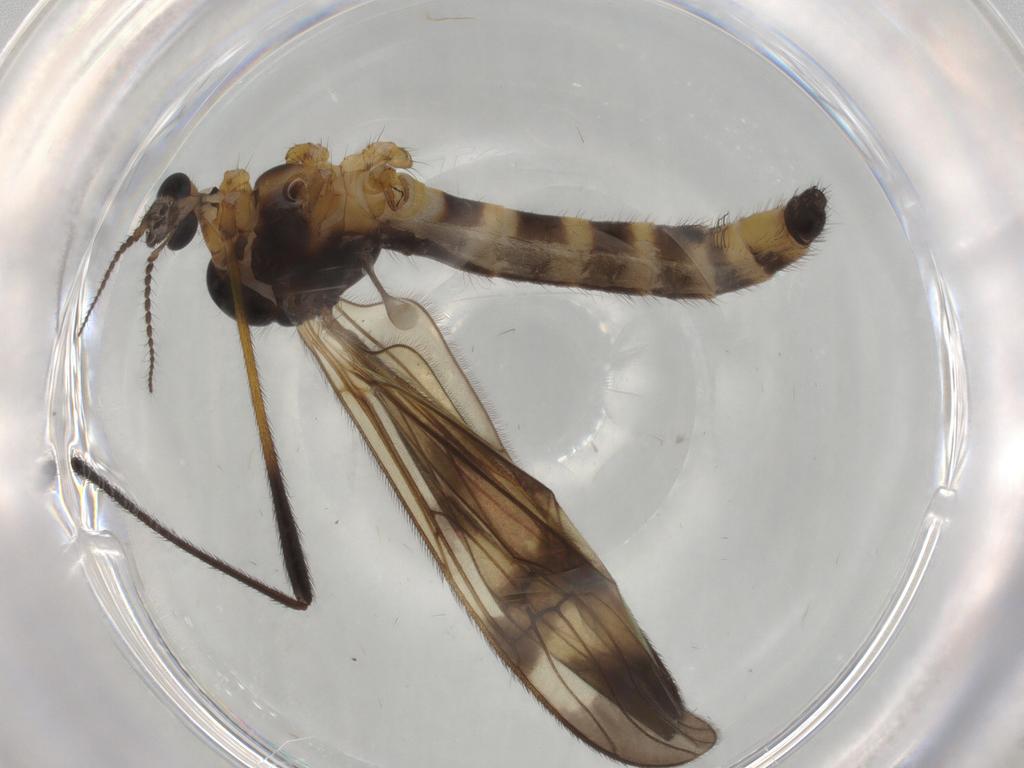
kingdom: Animalia
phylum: Arthropoda
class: Insecta
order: Diptera
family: Limoniidae
